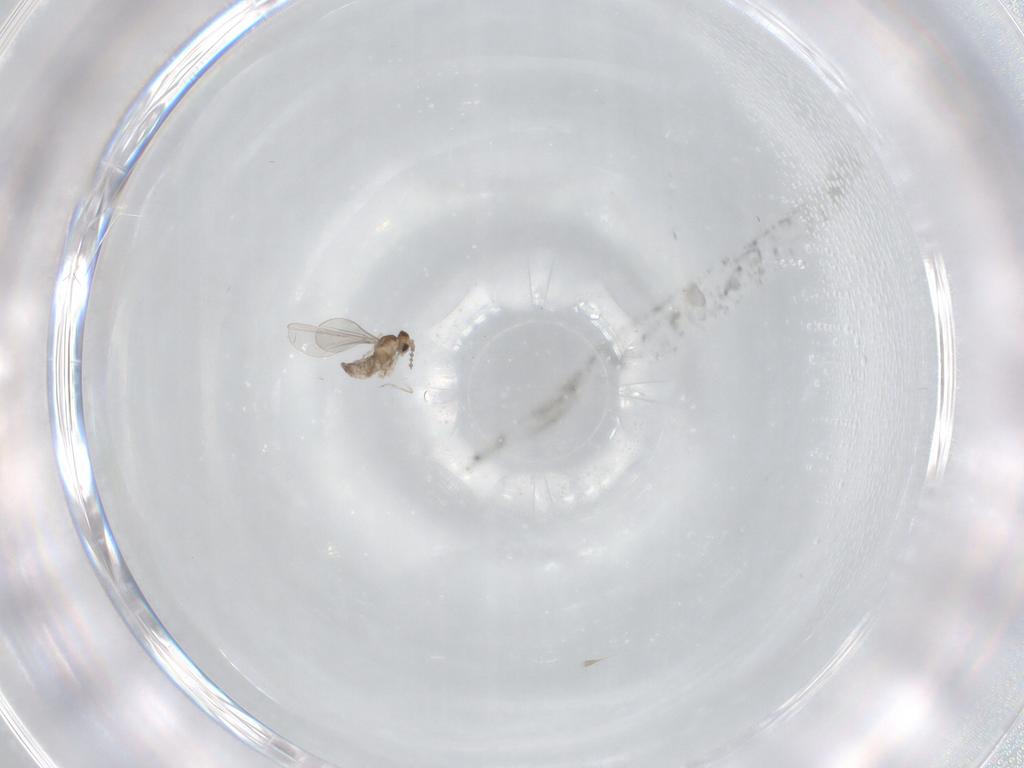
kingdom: Animalia
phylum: Arthropoda
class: Insecta
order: Diptera
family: Cecidomyiidae
